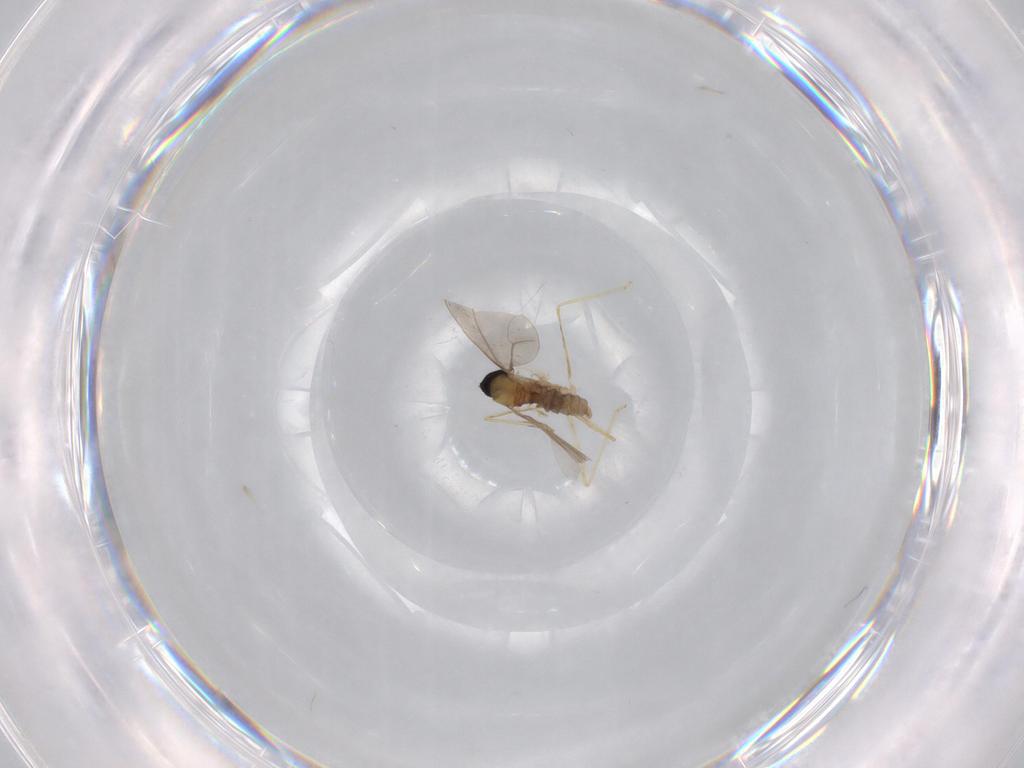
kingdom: Animalia
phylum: Arthropoda
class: Insecta
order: Diptera
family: Cecidomyiidae
